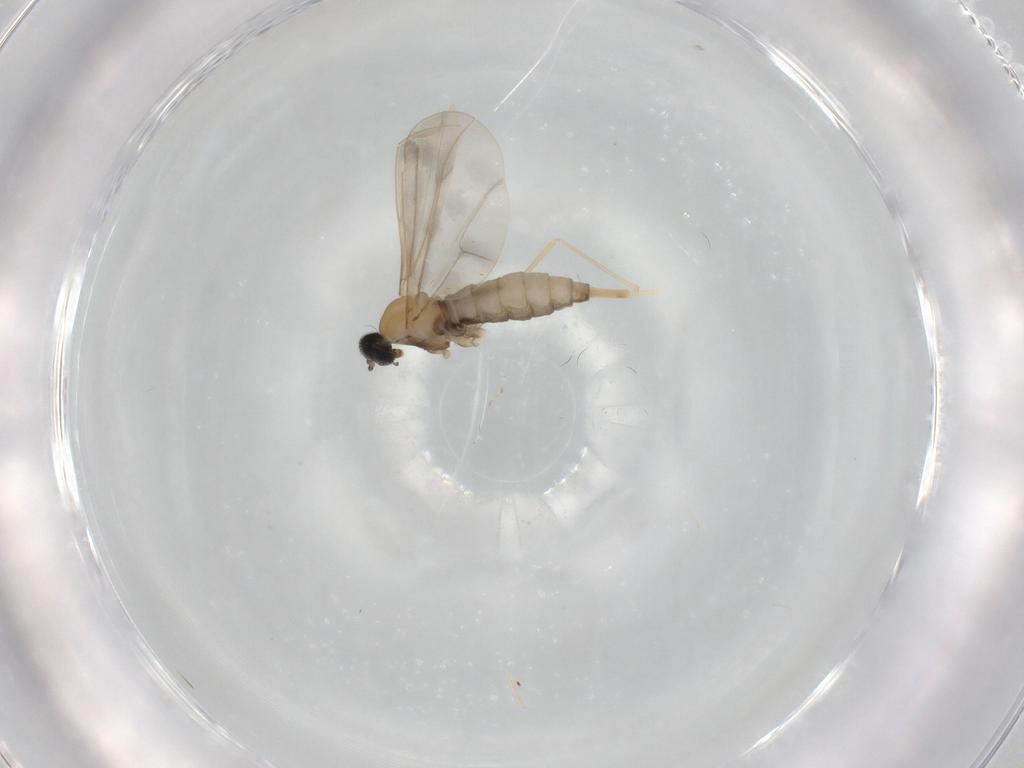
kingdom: Animalia
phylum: Arthropoda
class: Insecta
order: Diptera
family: Cecidomyiidae
